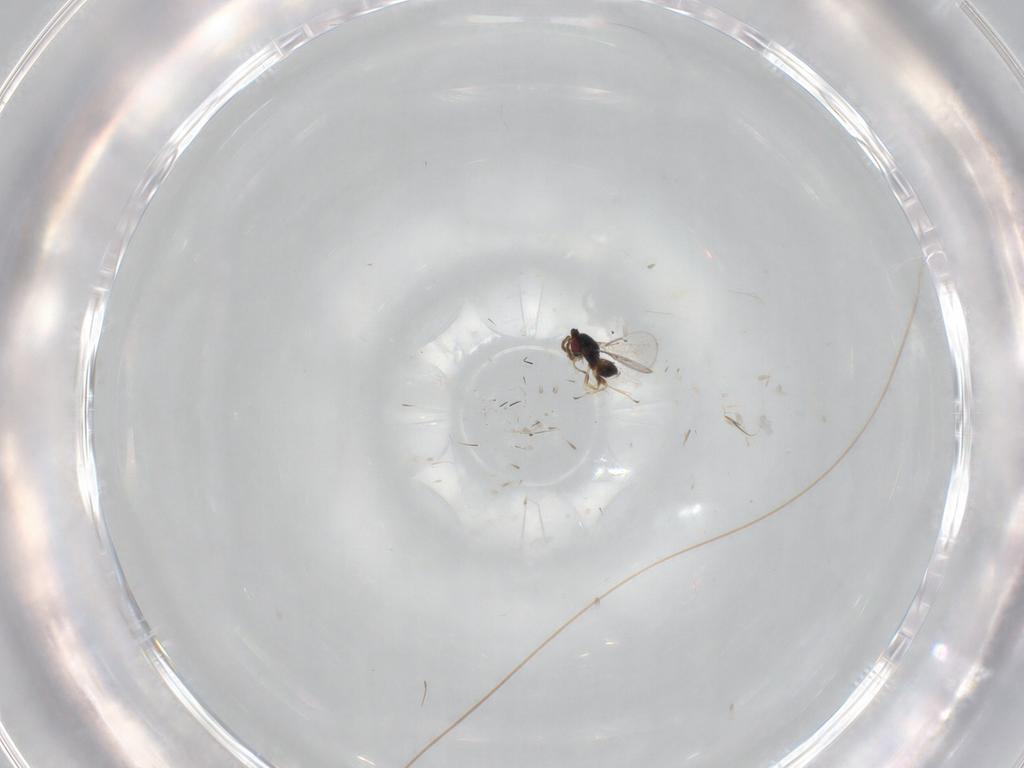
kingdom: Animalia
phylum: Arthropoda
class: Insecta
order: Hymenoptera
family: Eulophidae
